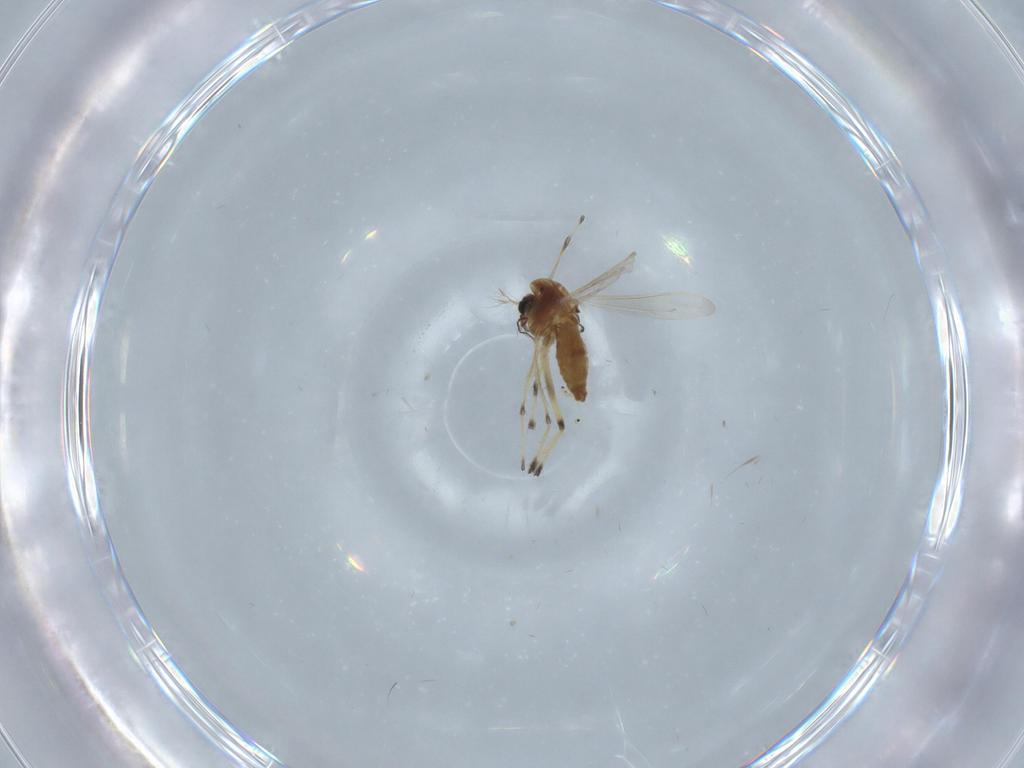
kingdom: Animalia
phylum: Arthropoda
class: Insecta
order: Diptera
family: Chironomidae
